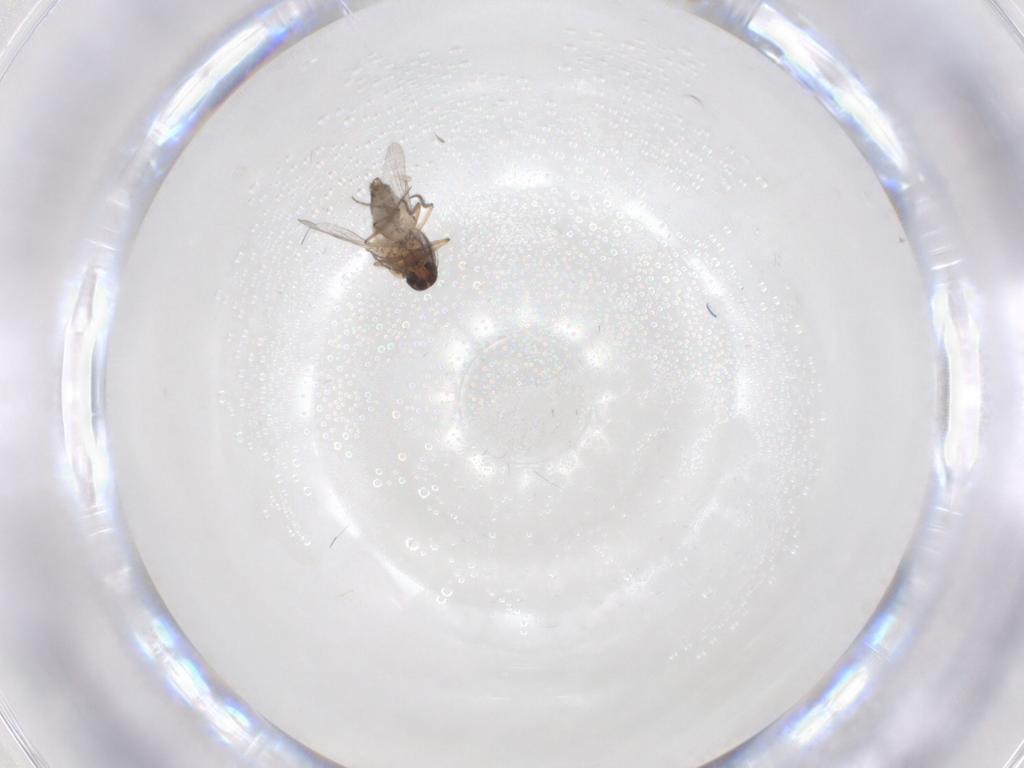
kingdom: Animalia
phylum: Arthropoda
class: Insecta
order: Diptera
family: Ceratopogonidae
